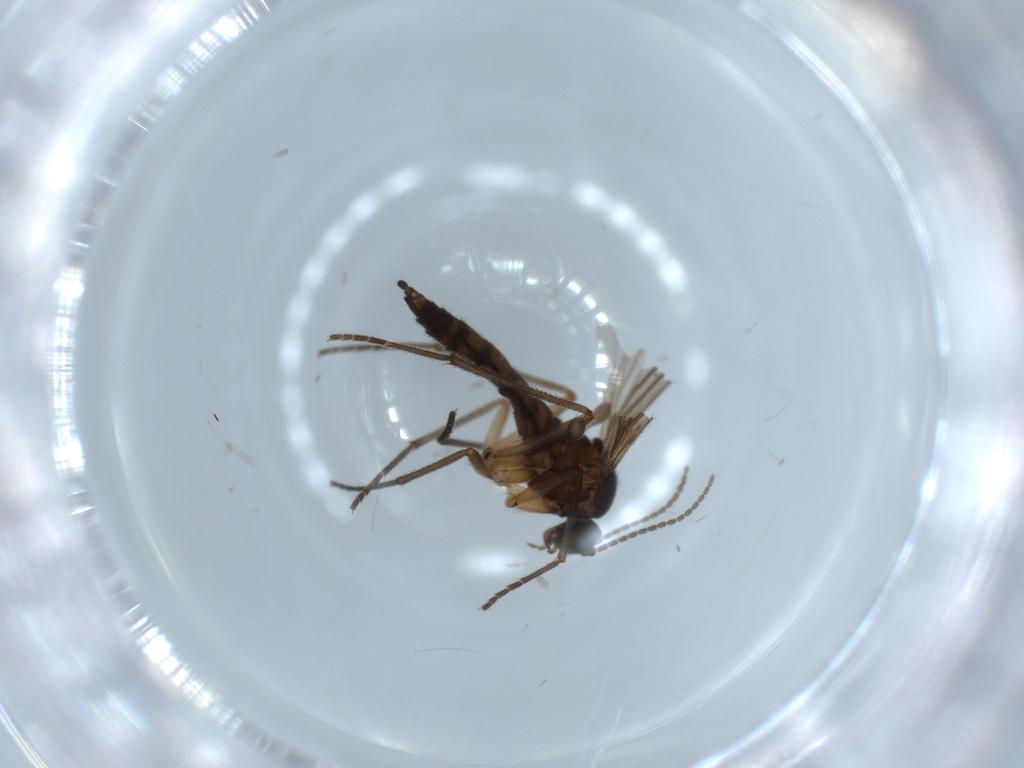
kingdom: Animalia
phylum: Arthropoda
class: Insecta
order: Diptera
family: Sciaridae
